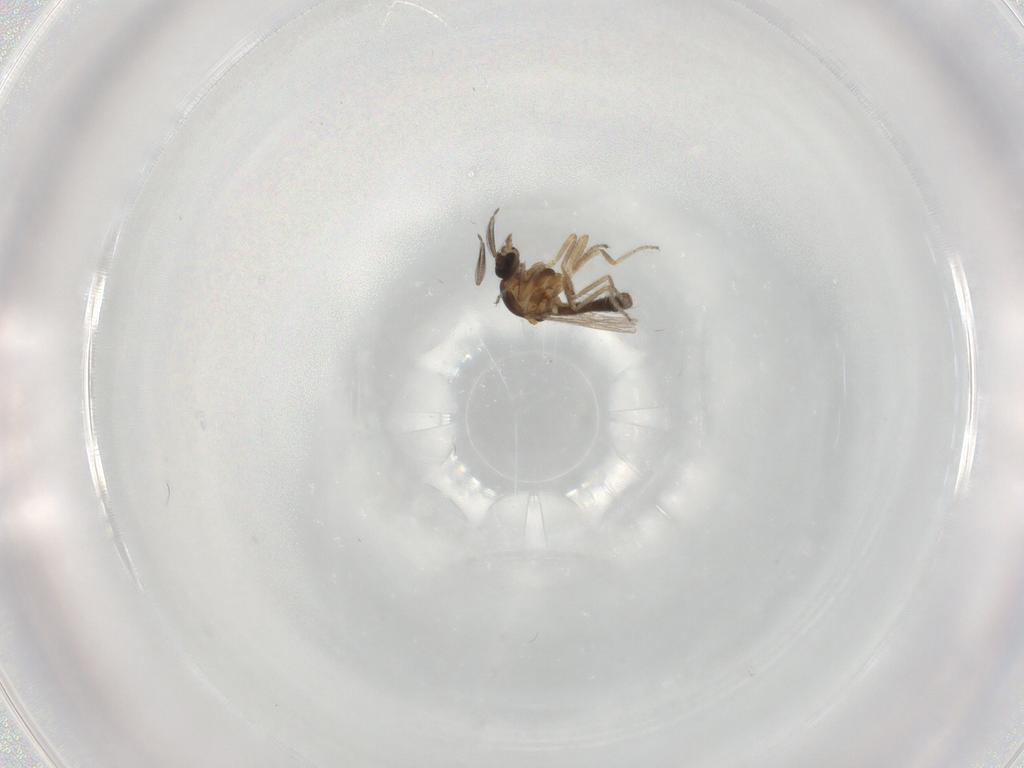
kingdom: Animalia
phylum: Arthropoda
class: Insecta
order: Diptera
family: Ceratopogonidae
